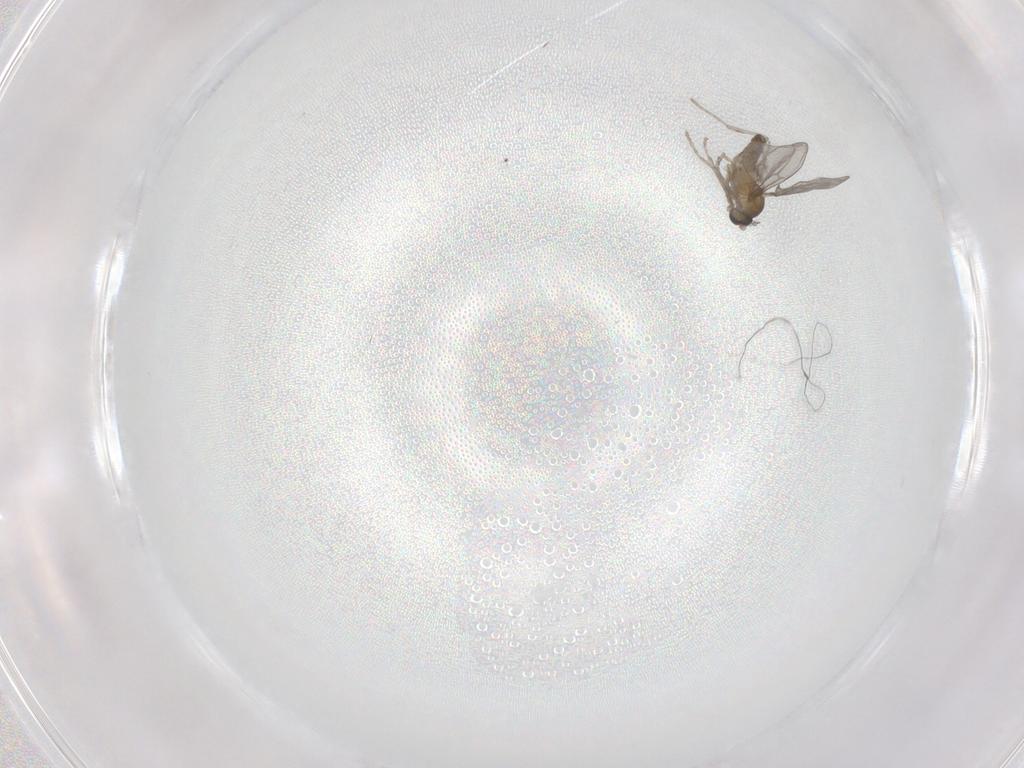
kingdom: Animalia
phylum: Arthropoda
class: Insecta
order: Diptera
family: Cecidomyiidae
